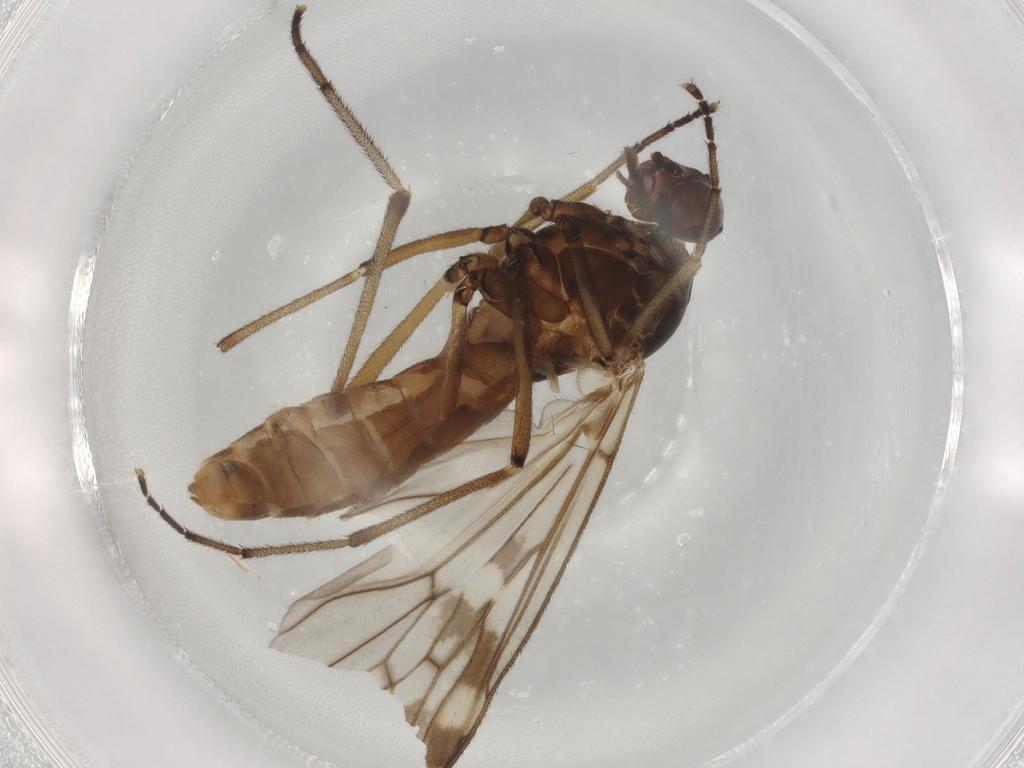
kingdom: Animalia
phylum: Arthropoda
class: Insecta
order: Diptera
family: Anisopodidae
